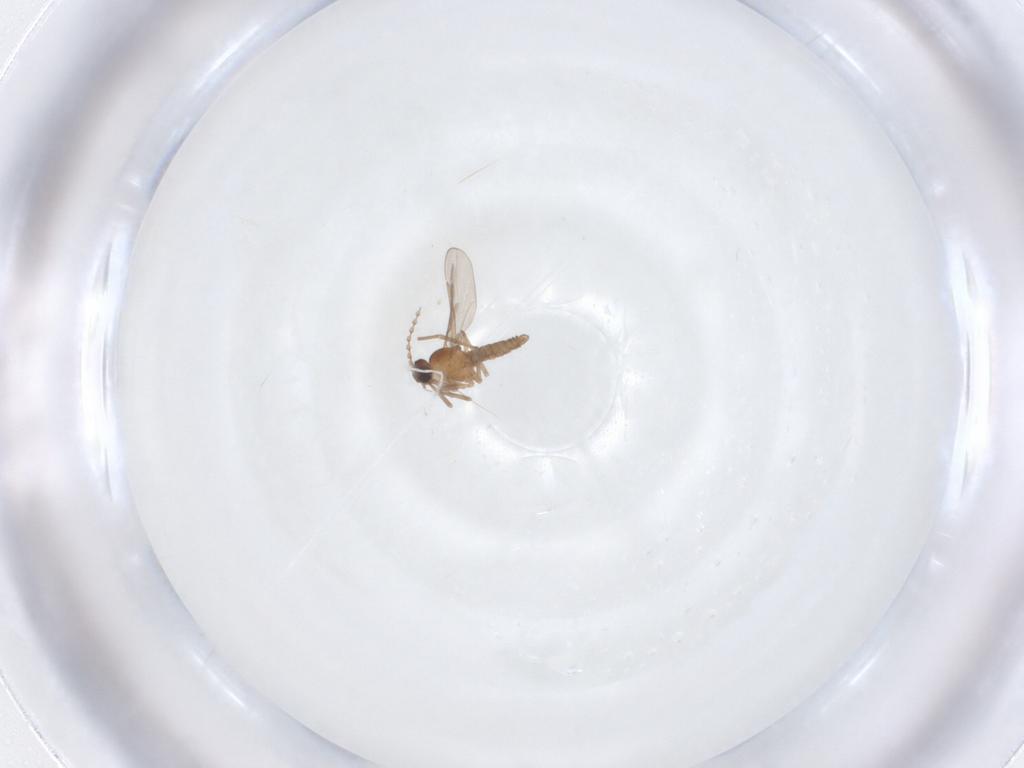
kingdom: Animalia
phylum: Arthropoda
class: Insecta
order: Diptera
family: Cecidomyiidae
